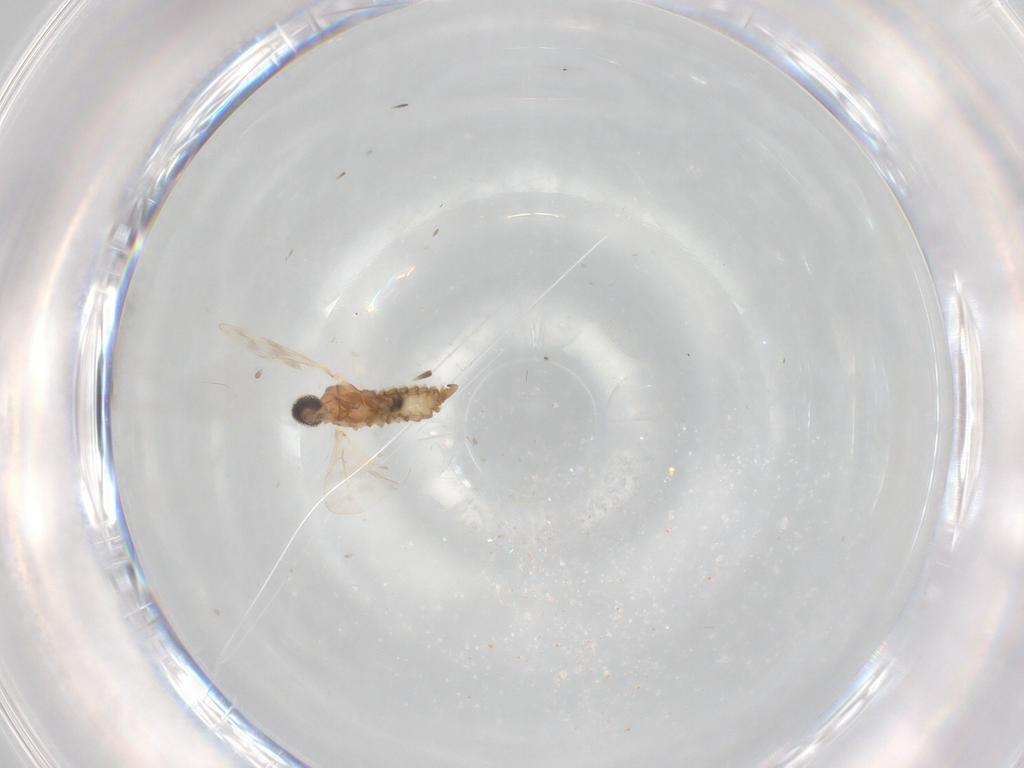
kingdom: Animalia
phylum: Arthropoda
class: Insecta
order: Diptera
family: Cecidomyiidae
